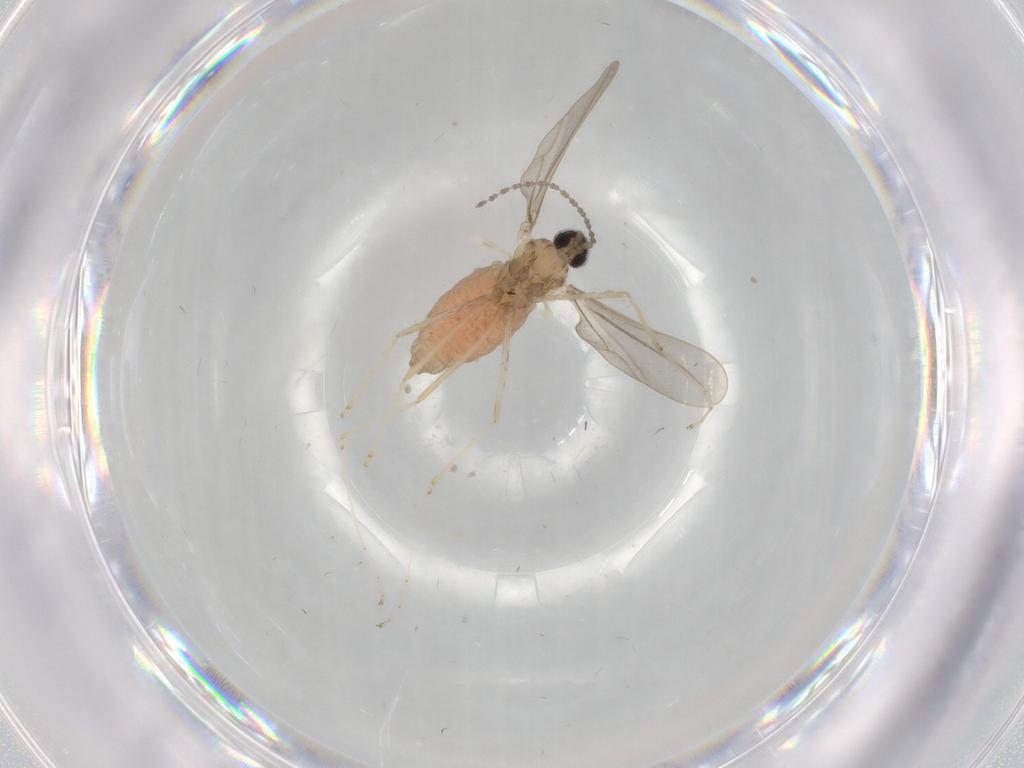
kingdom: Animalia
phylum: Arthropoda
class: Insecta
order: Diptera
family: Cecidomyiidae
